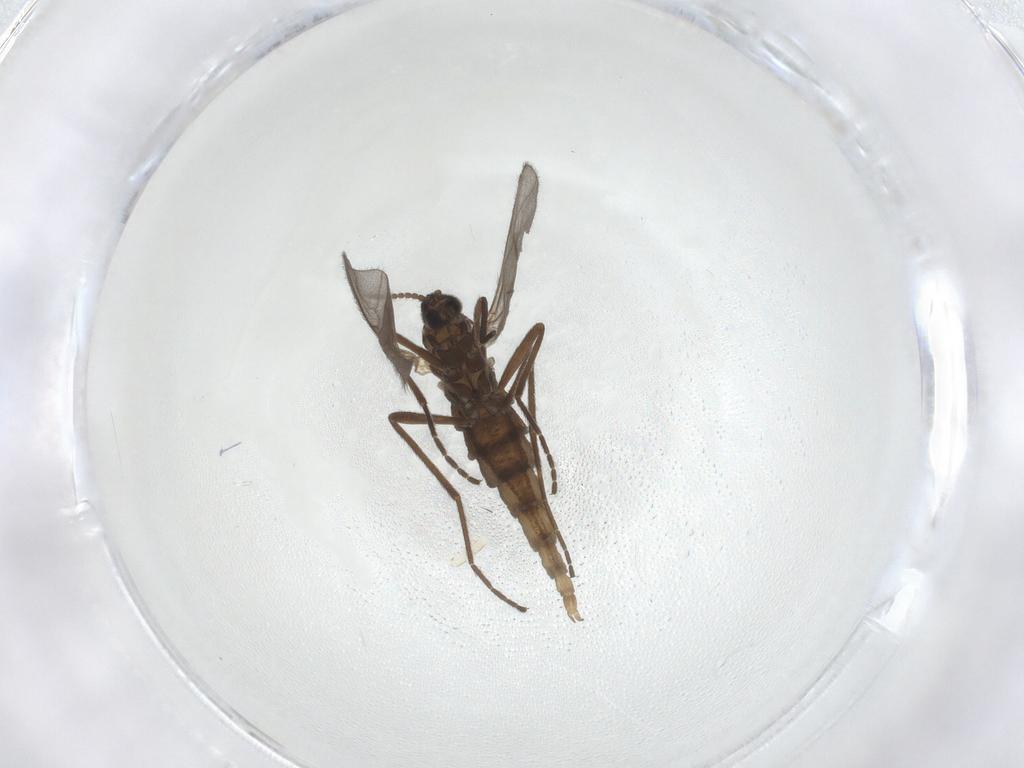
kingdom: Animalia
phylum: Arthropoda
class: Insecta
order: Diptera
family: Cecidomyiidae
